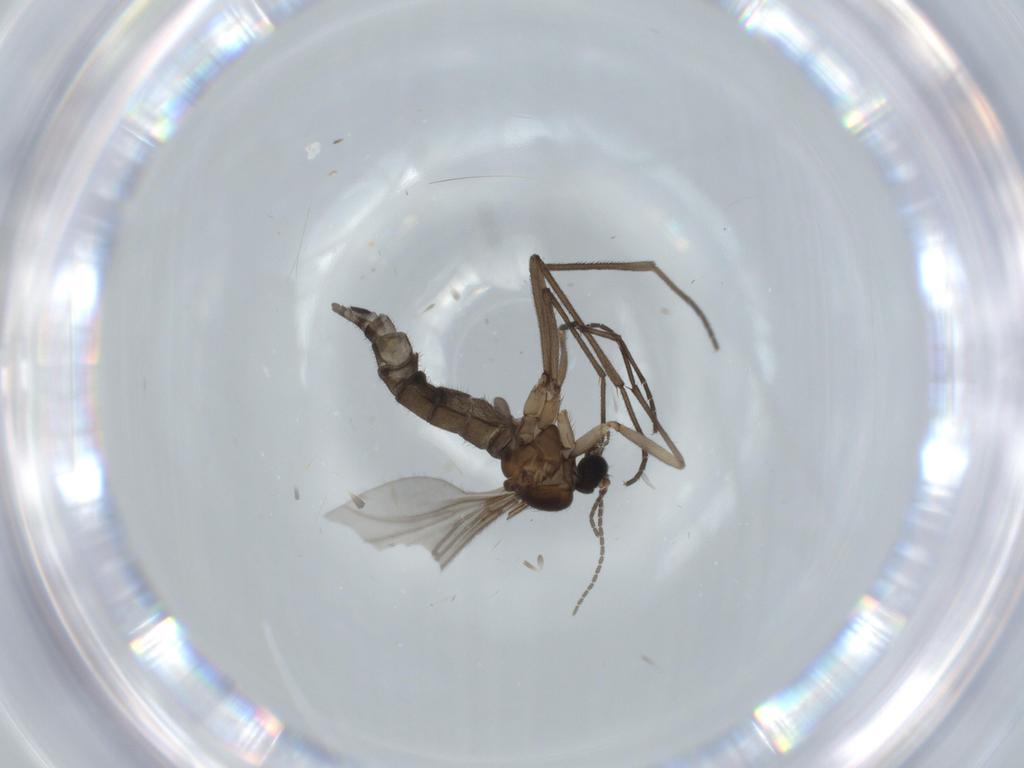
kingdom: Animalia
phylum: Arthropoda
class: Insecta
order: Diptera
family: Sciaridae
